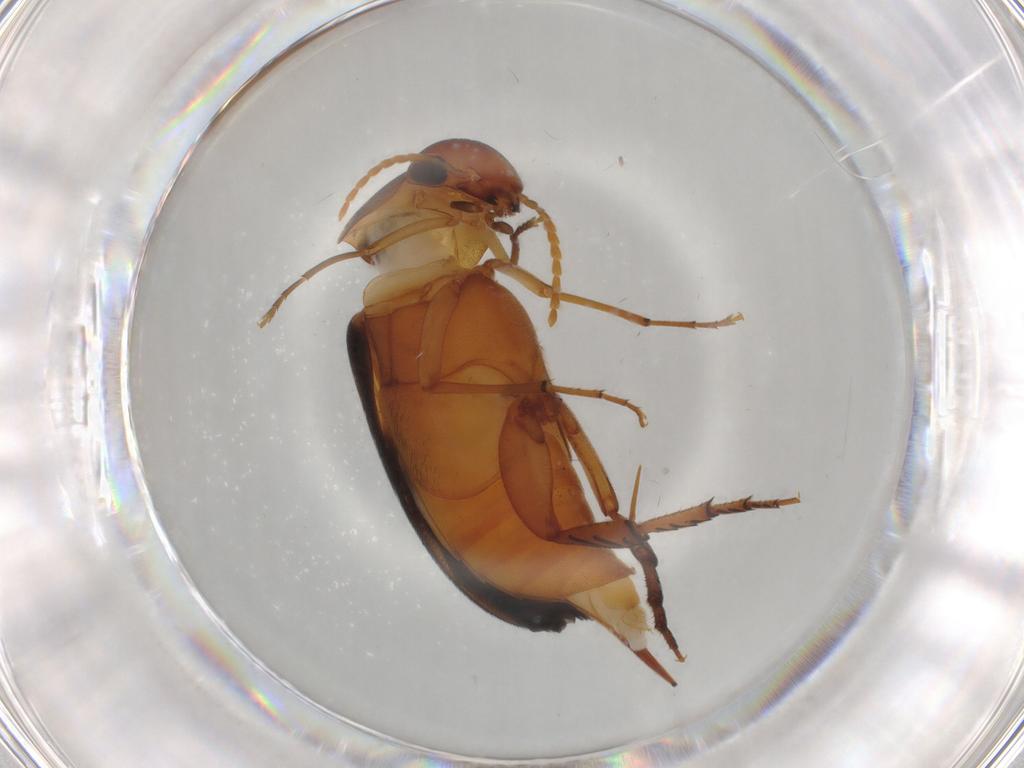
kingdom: Animalia
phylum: Arthropoda
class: Insecta
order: Coleoptera
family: Mordellidae
